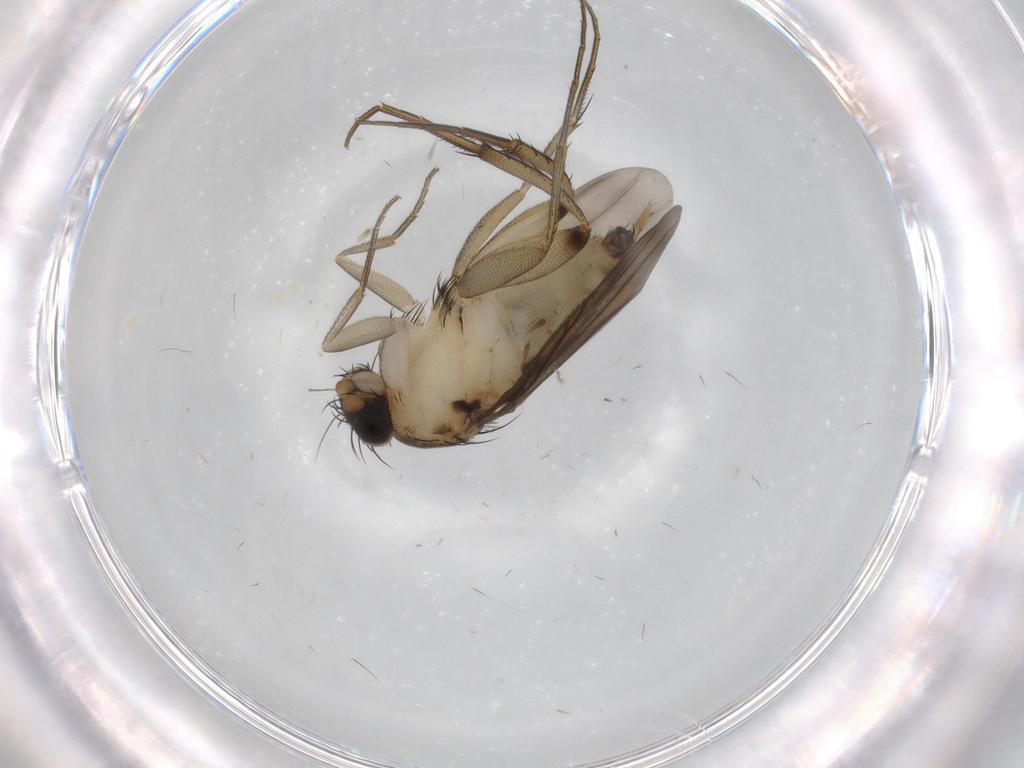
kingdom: Animalia
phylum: Arthropoda
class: Insecta
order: Diptera
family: Phoridae
